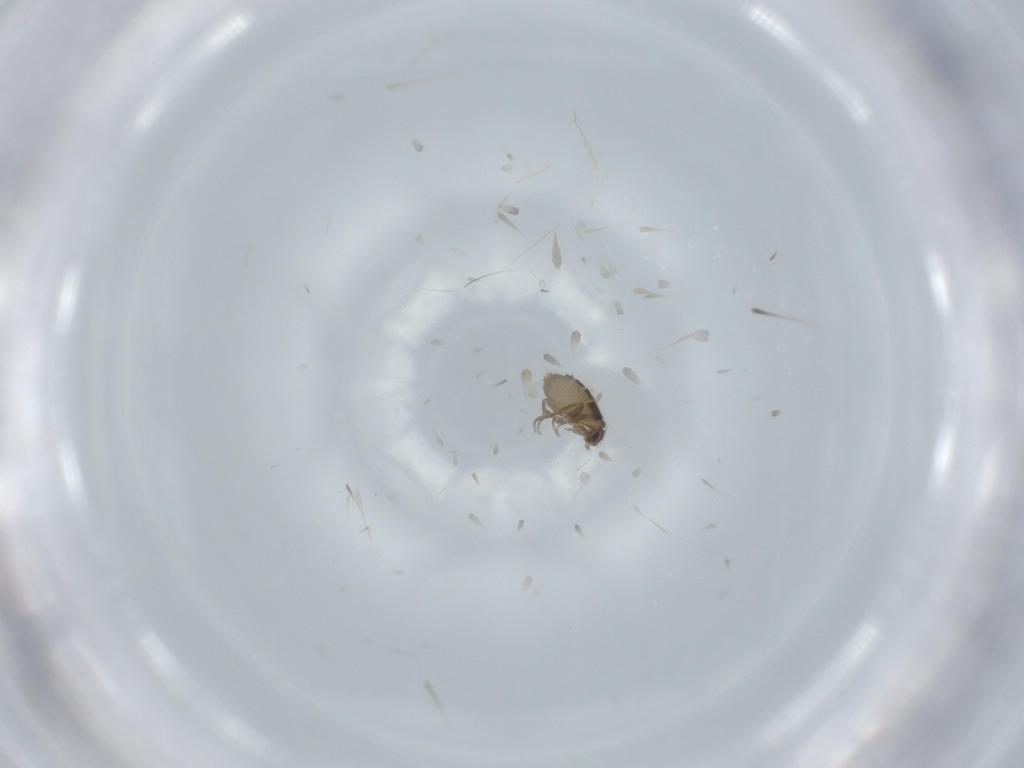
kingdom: Animalia
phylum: Arthropoda
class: Insecta
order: Diptera
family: Phoridae
